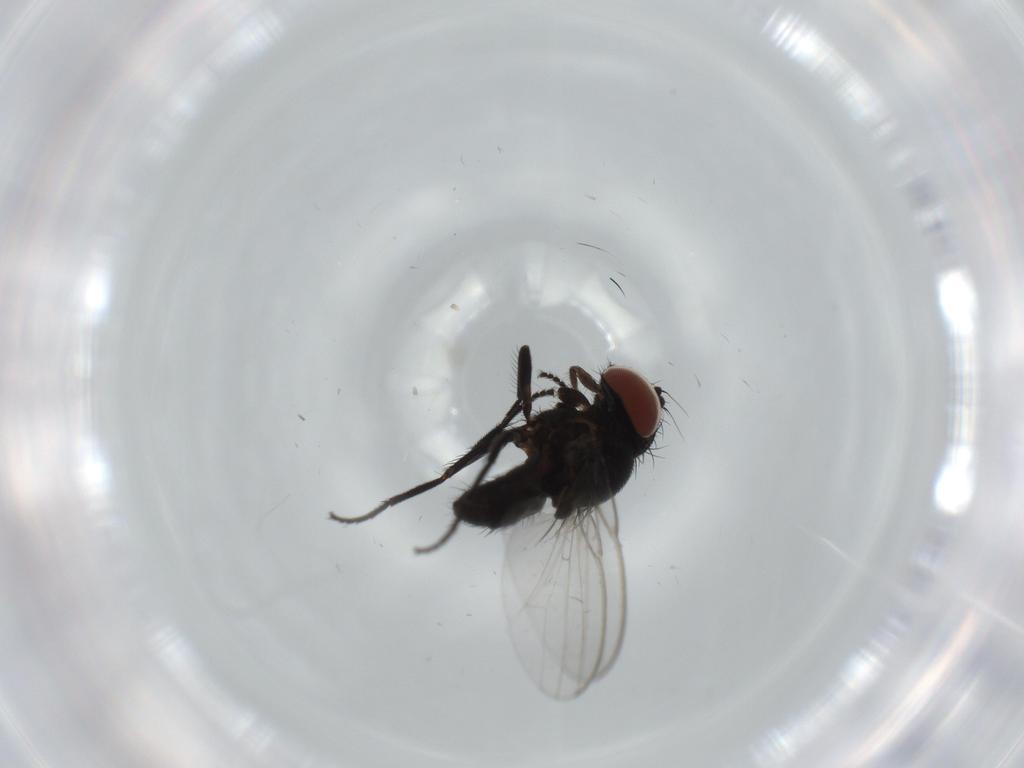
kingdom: Animalia
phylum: Arthropoda
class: Insecta
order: Diptera
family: Milichiidae
